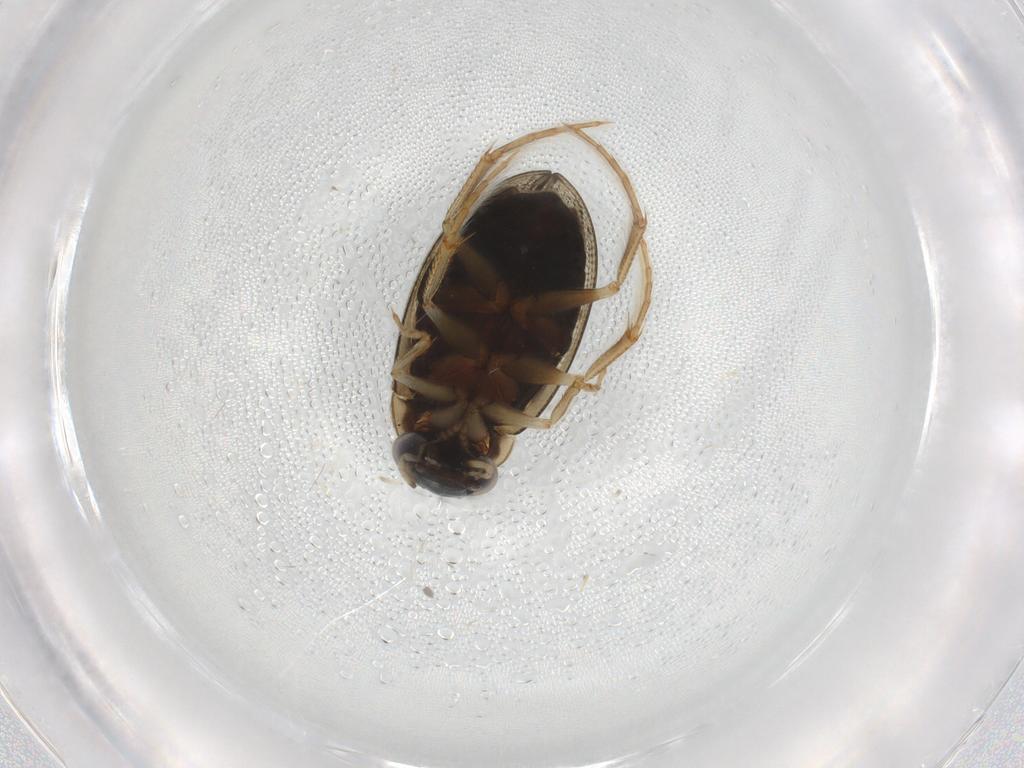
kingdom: Animalia
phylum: Arthropoda
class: Insecta
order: Coleoptera
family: Hydrophilidae
